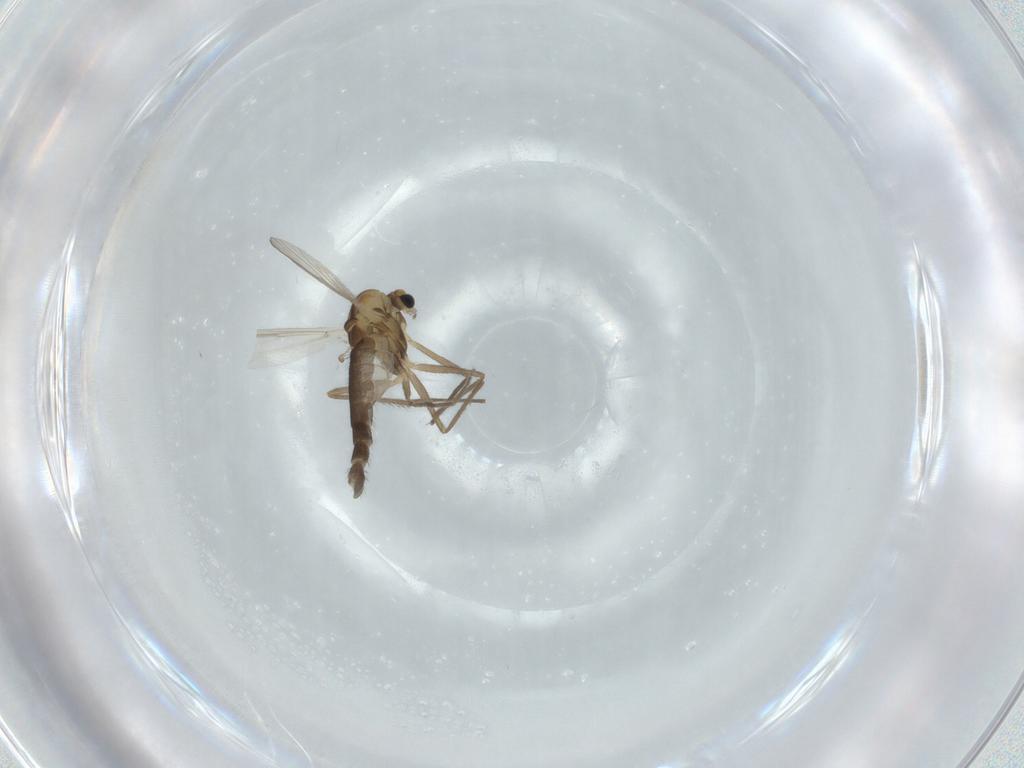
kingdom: Animalia
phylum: Arthropoda
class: Insecta
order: Diptera
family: Chironomidae
